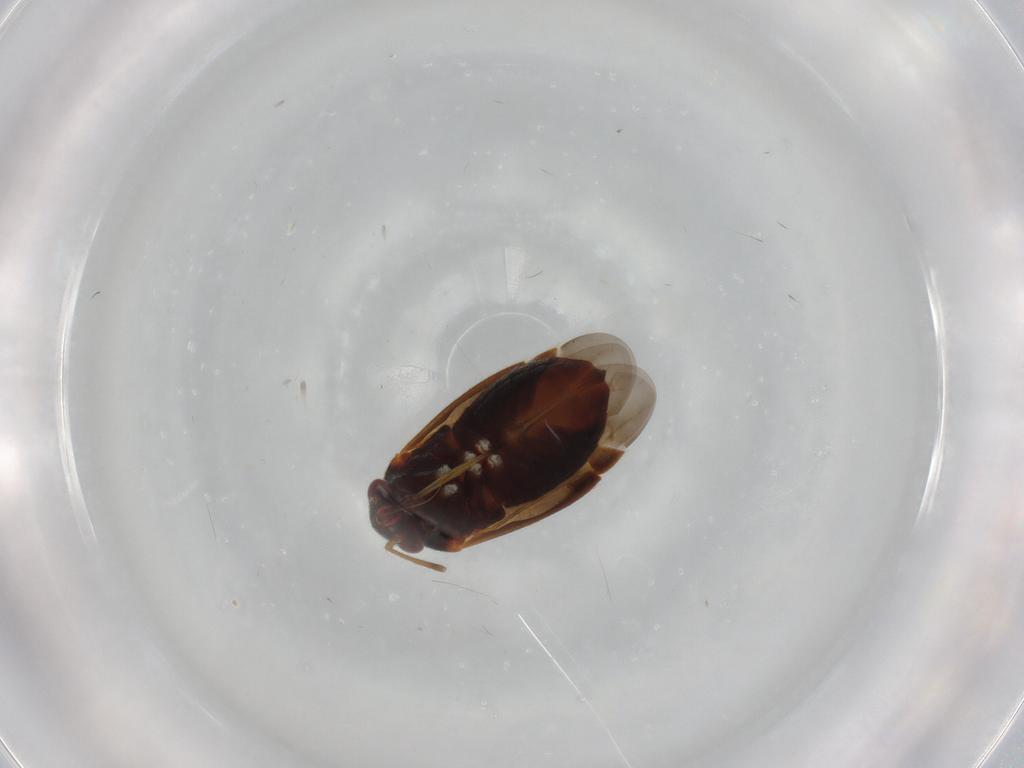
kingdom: Animalia
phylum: Arthropoda
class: Insecta
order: Hemiptera
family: Miridae
